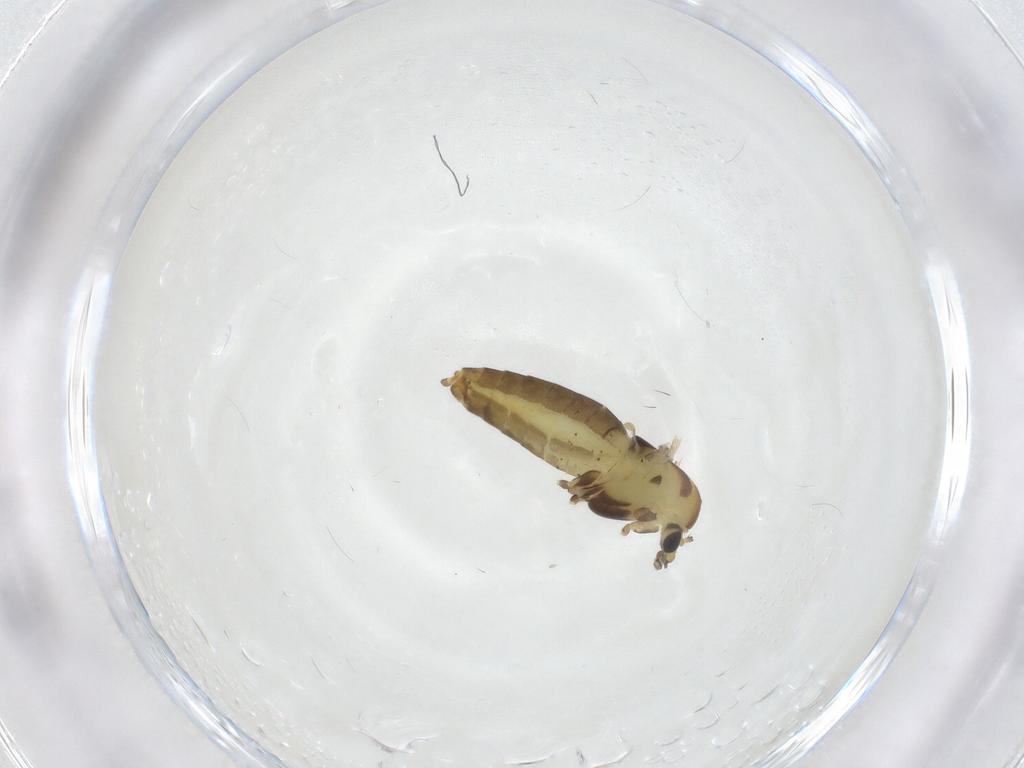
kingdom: Animalia
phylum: Arthropoda
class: Insecta
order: Diptera
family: Chironomidae
